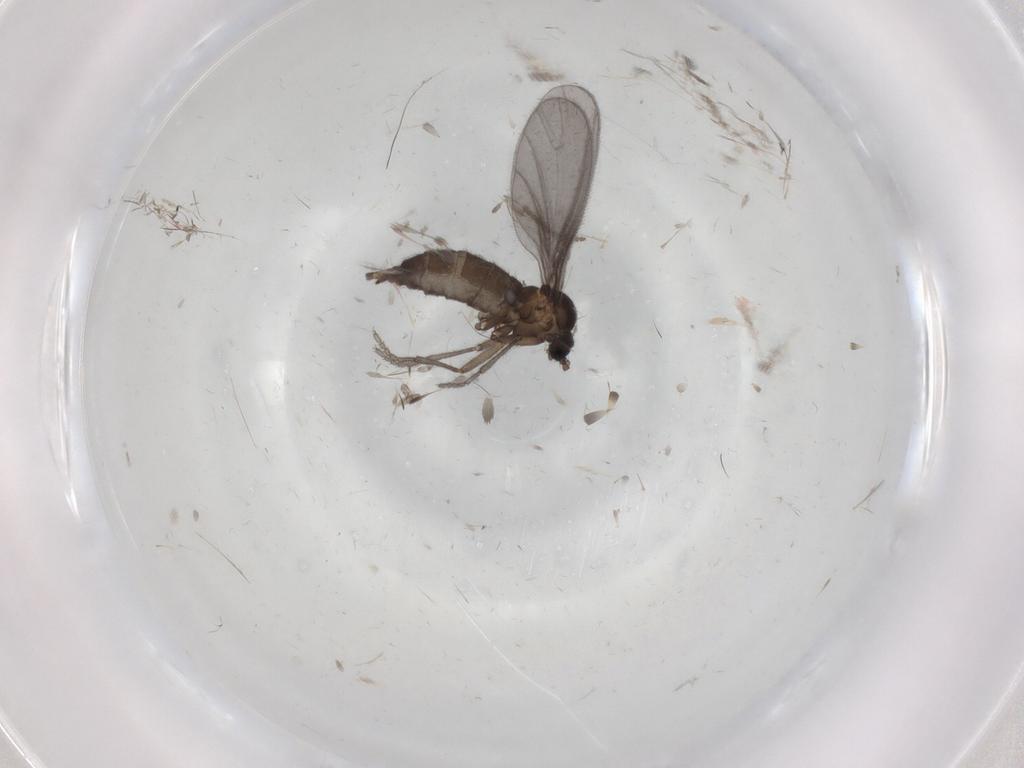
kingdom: Animalia
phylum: Arthropoda
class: Insecta
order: Diptera
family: Sciaridae
